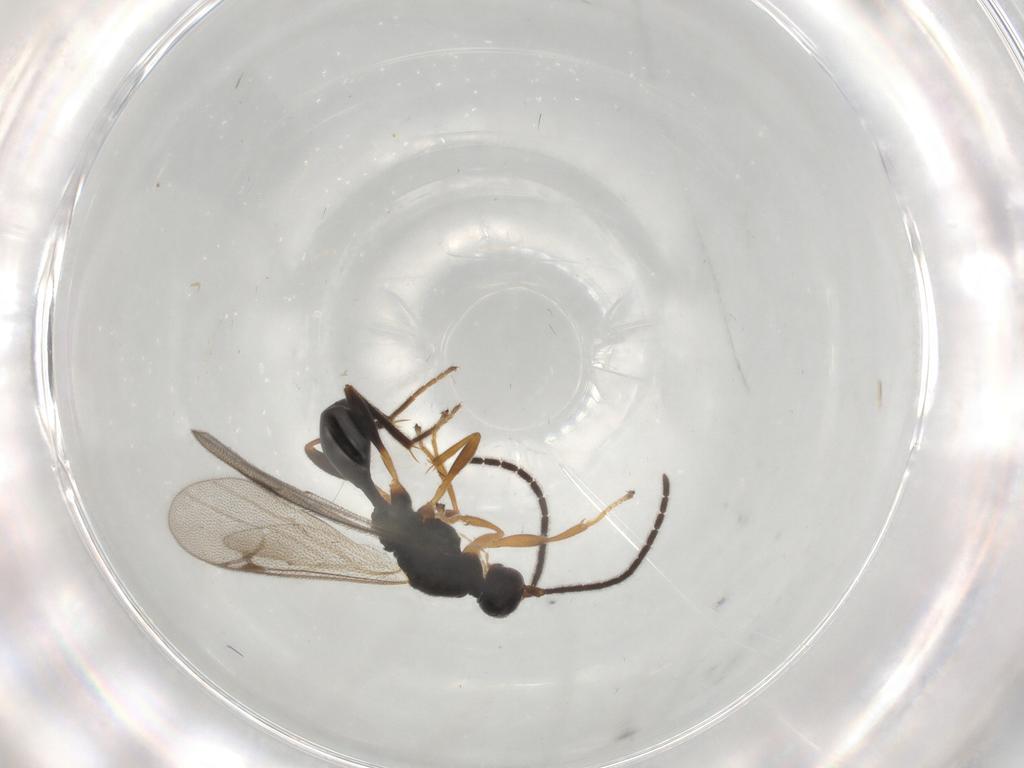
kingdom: Animalia
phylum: Arthropoda
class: Insecta
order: Hymenoptera
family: Proctotrupidae
